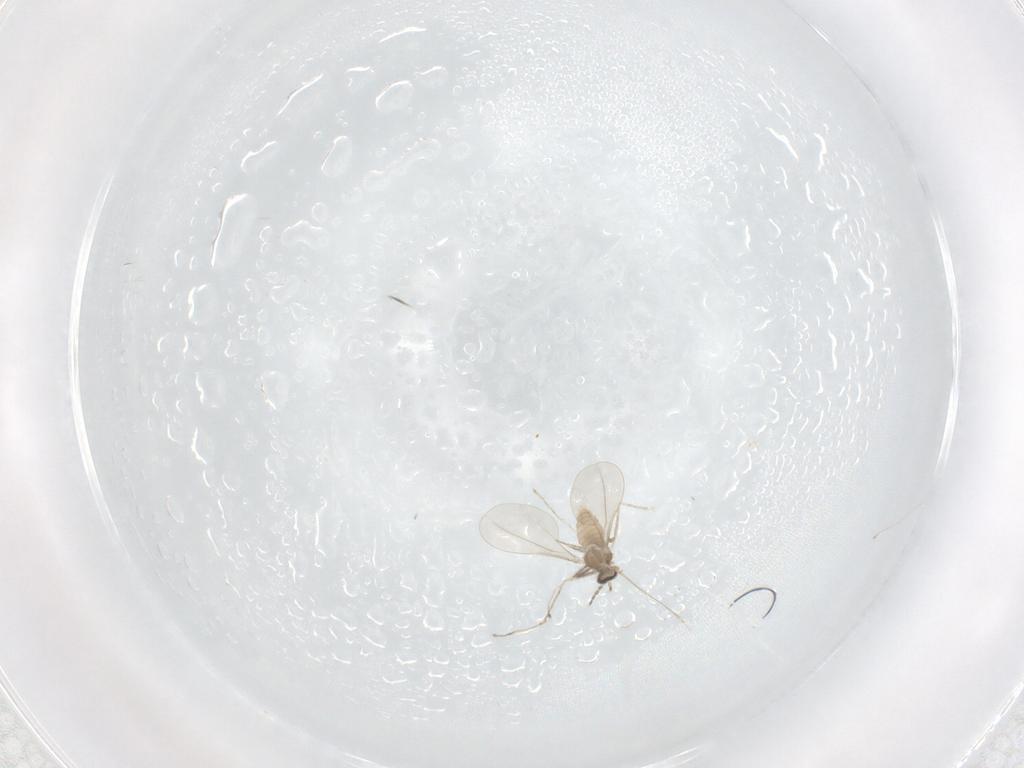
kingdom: Animalia
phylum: Arthropoda
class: Insecta
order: Diptera
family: Cecidomyiidae
